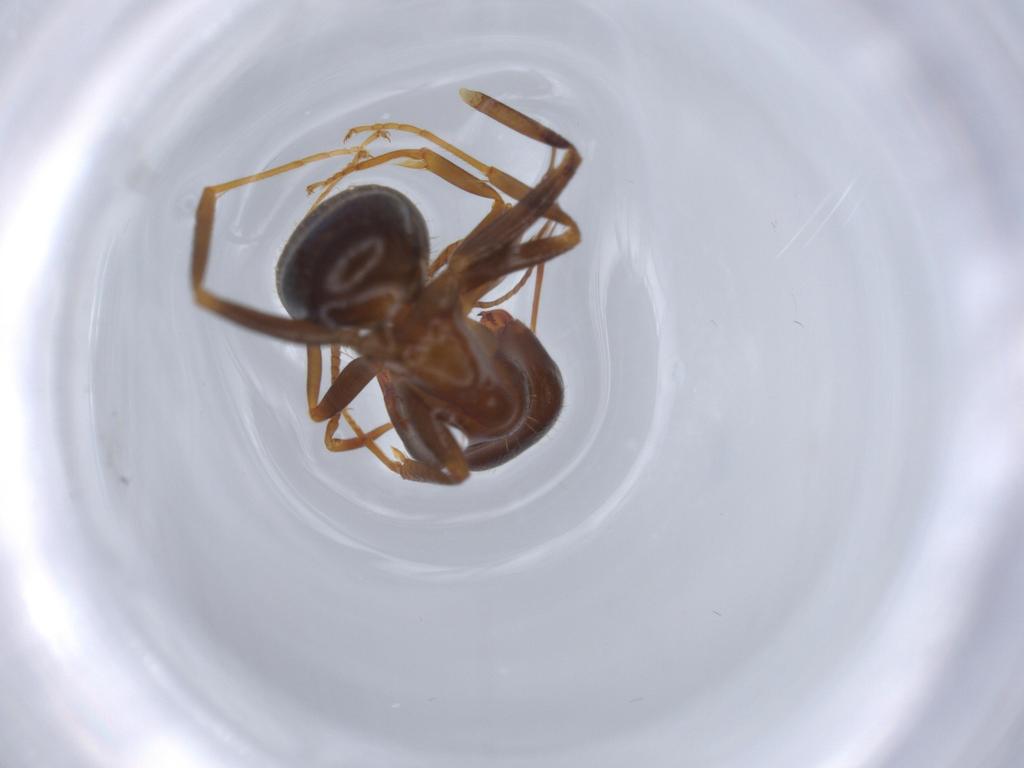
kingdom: Animalia
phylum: Arthropoda
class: Insecta
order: Hymenoptera
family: Formicidae
